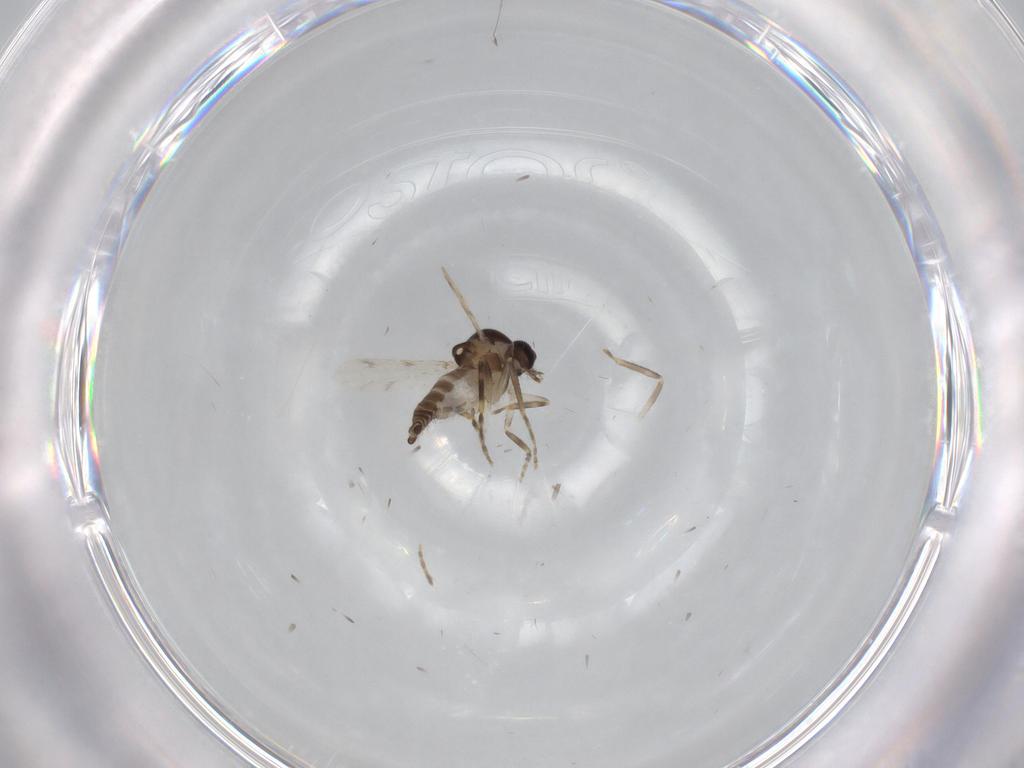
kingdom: Animalia
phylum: Arthropoda
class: Insecta
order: Diptera
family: Ceratopogonidae
